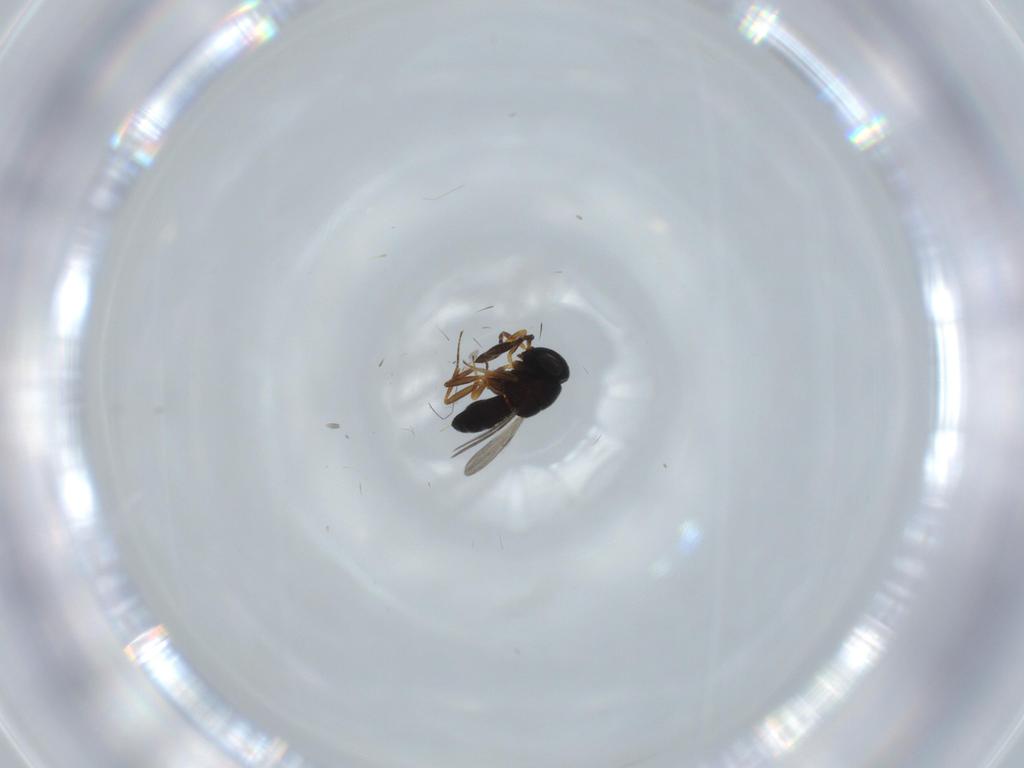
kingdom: Animalia
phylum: Arthropoda
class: Insecta
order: Hymenoptera
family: Scelionidae
